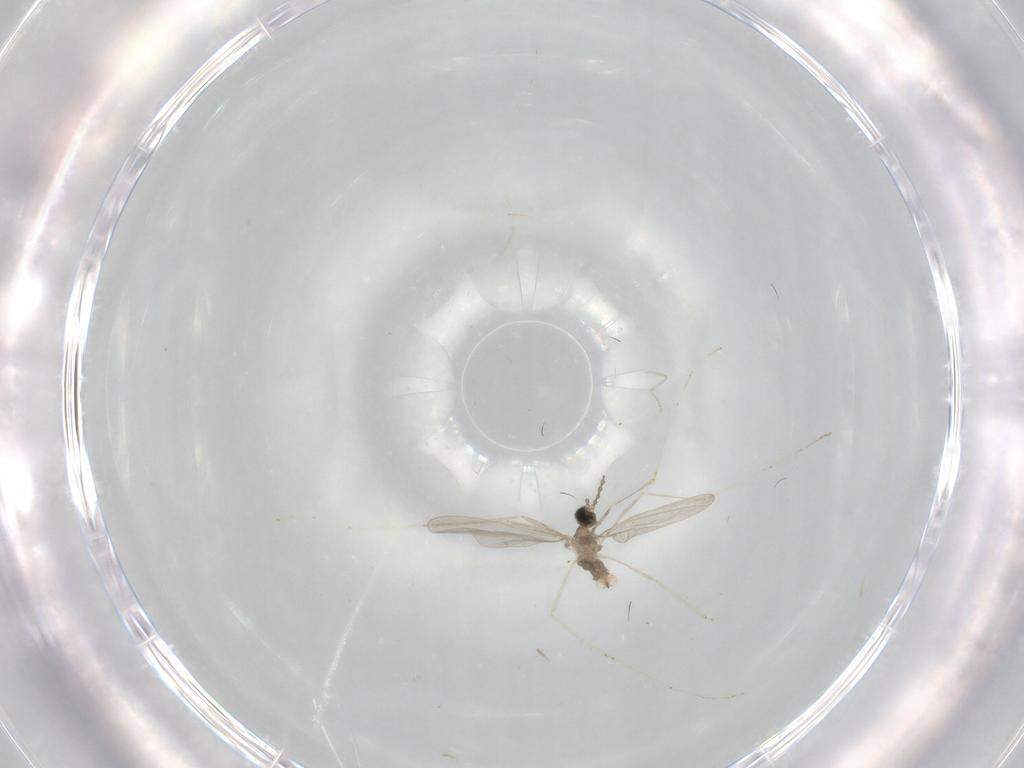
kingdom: Animalia
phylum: Arthropoda
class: Insecta
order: Diptera
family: Cecidomyiidae
